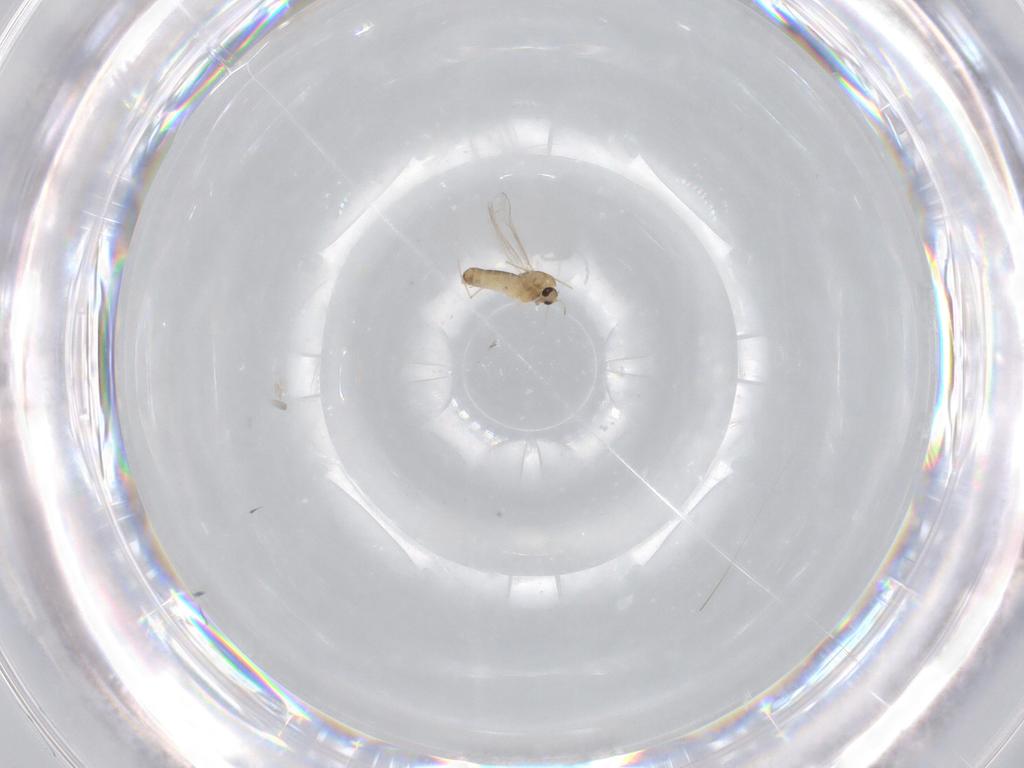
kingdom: Animalia
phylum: Arthropoda
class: Insecta
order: Diptera
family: Chironomidae
